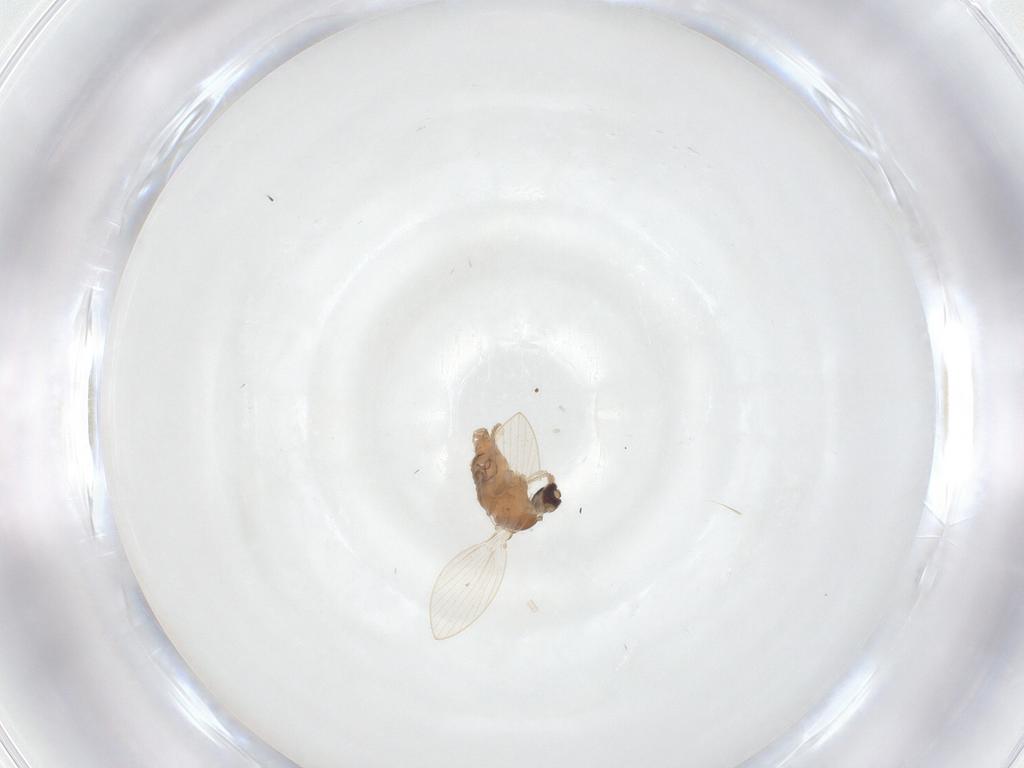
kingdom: Animalia
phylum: Arthropoda
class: Insecta
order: Diptera
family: Psychodidae
